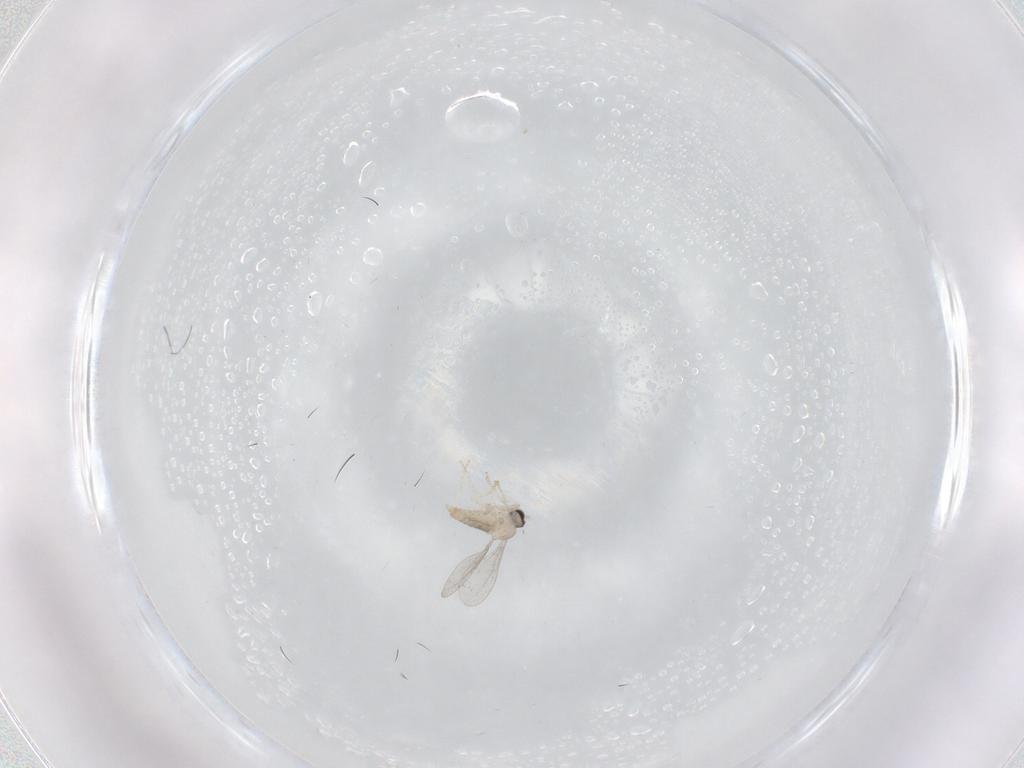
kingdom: Animalia
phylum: Arthropoda
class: Insecta
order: Diptera
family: Cecidomyiidae
